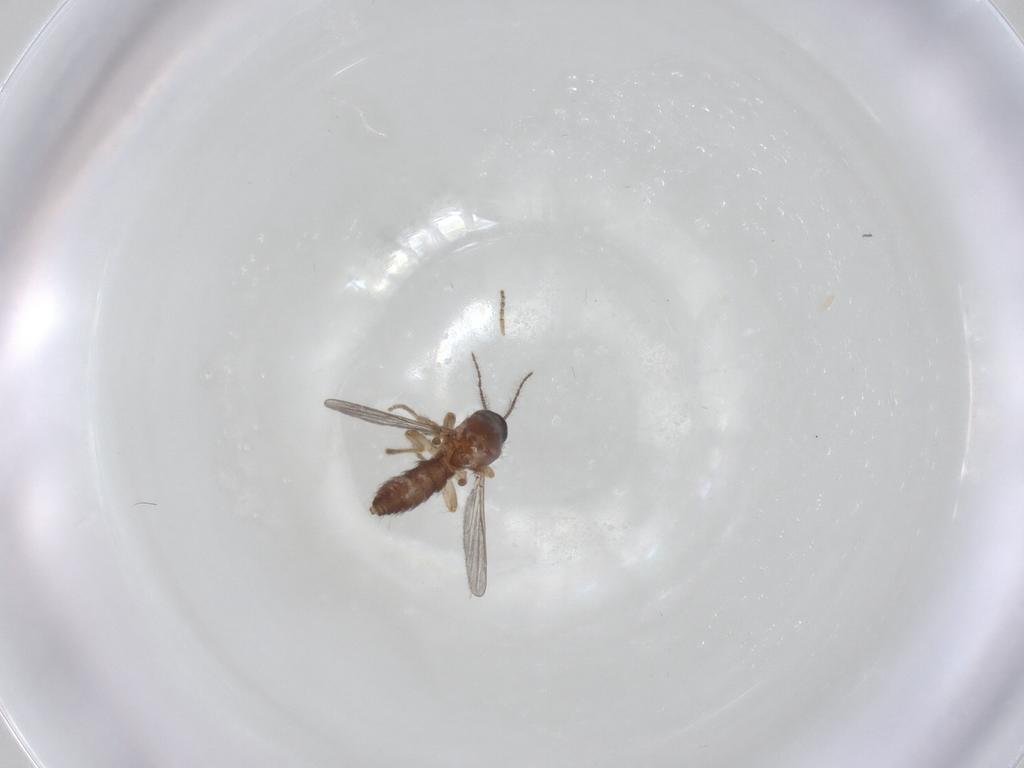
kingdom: Animalia
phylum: Arthropoda
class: Insecta
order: Diptera
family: Ceratopogonidae
